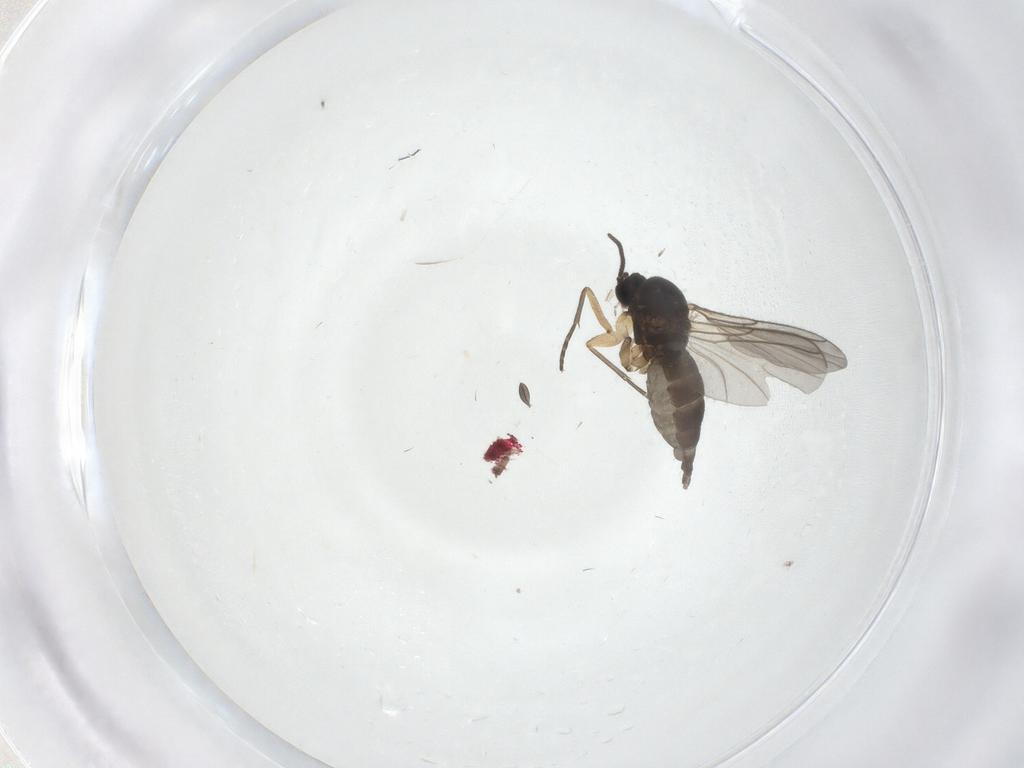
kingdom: Animalia
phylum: Arthropoda
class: Insecta
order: Diptera
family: Sciaridae
